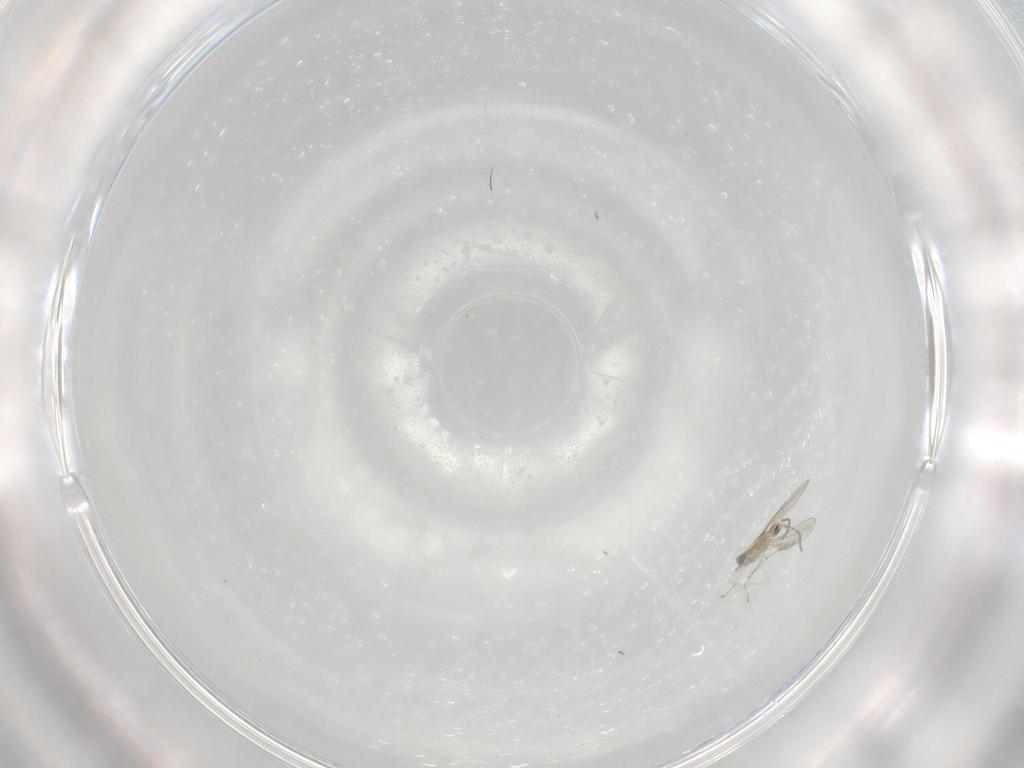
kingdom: Animalia
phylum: Arthropoda
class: Insecta
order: Diptera
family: Cecidomyiidae
